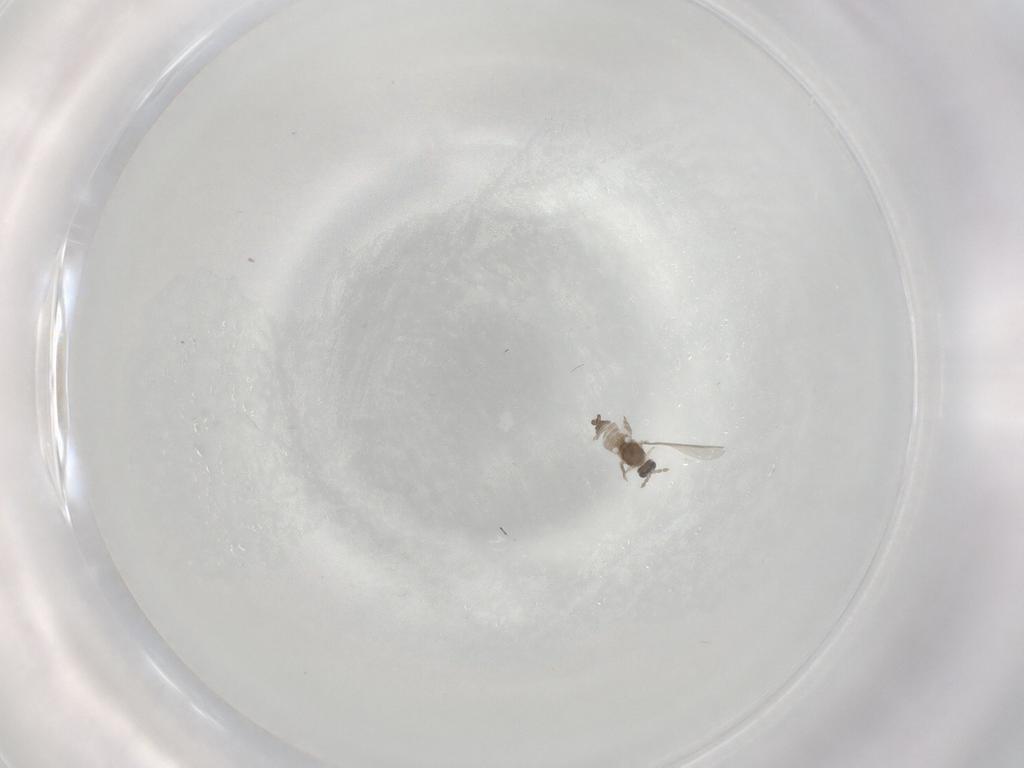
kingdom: Animalia
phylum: Arthropoda
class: Insecta
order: Diptera
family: Cecidomyiidae
